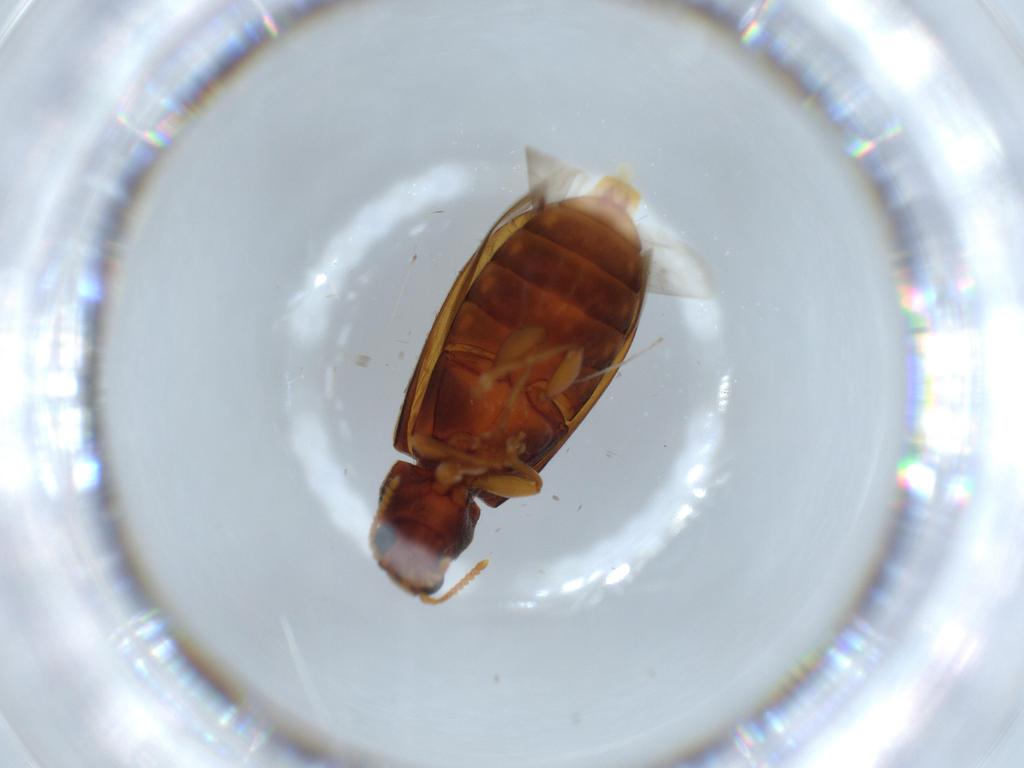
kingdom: Animalia
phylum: Arthropoda
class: Insecta
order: Coleoptera
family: Mycteridae
